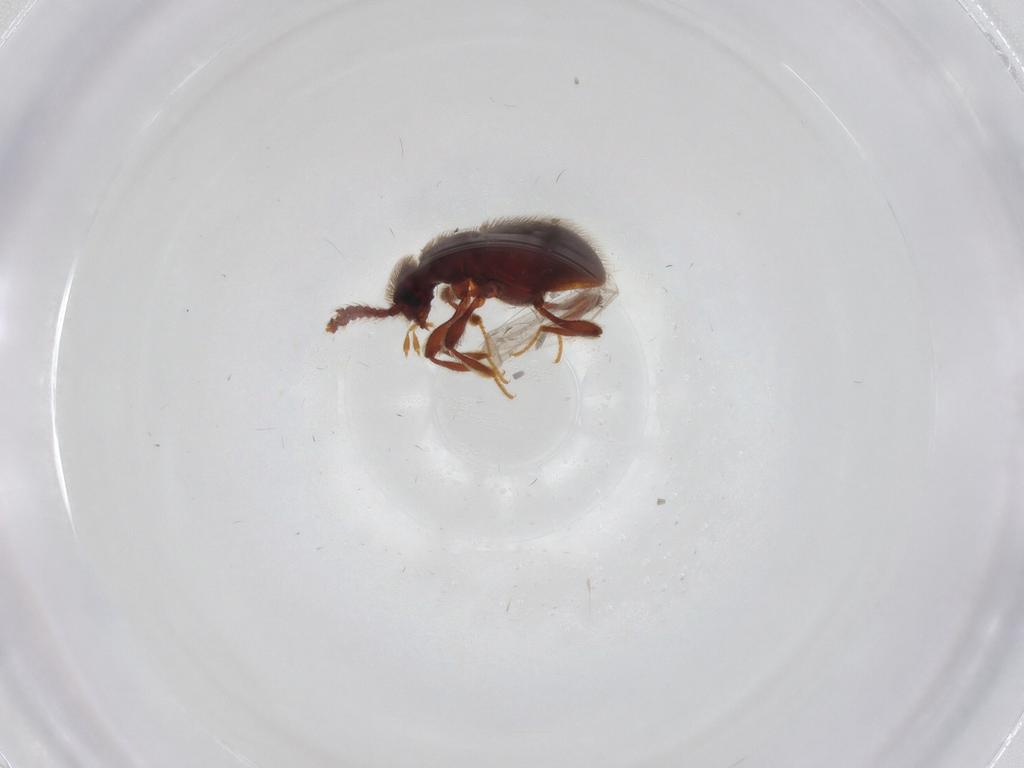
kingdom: Animalia
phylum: Arthropoda
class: Insecta
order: Coleoptera
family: Staphylinidae
